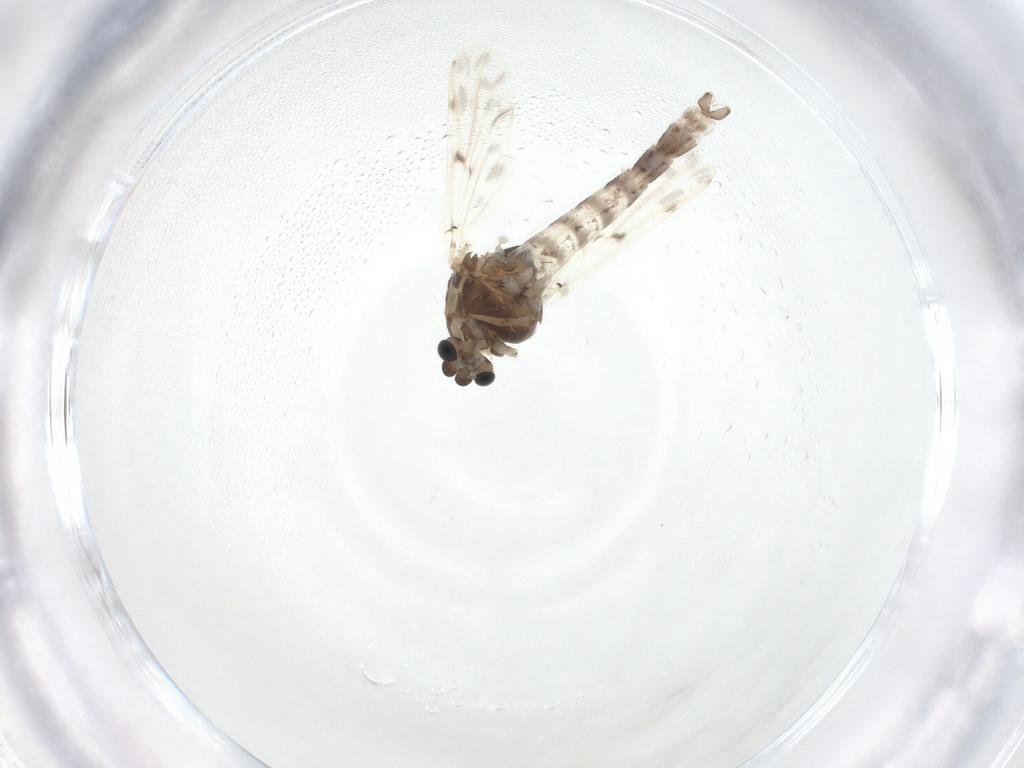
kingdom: Animalia
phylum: Arthropoda
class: Insecta
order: Diptera
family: Chironomidae
